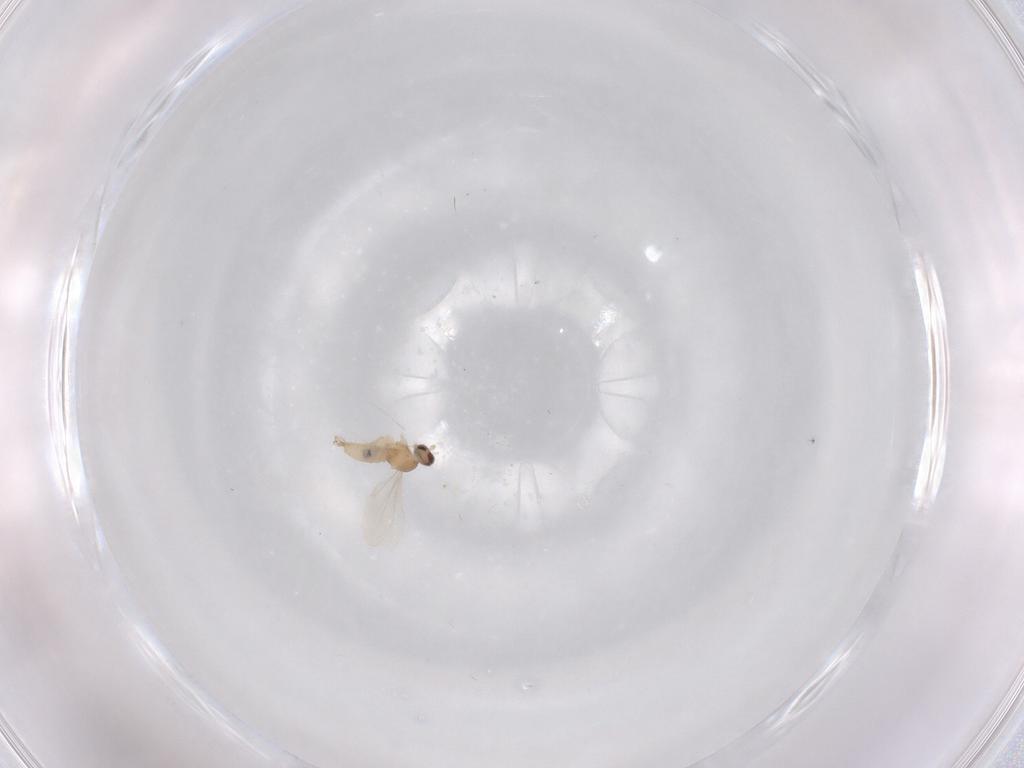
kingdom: Animalia
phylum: Arthropoda
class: Insecta
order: Diptera
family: Cecidomyiidae
